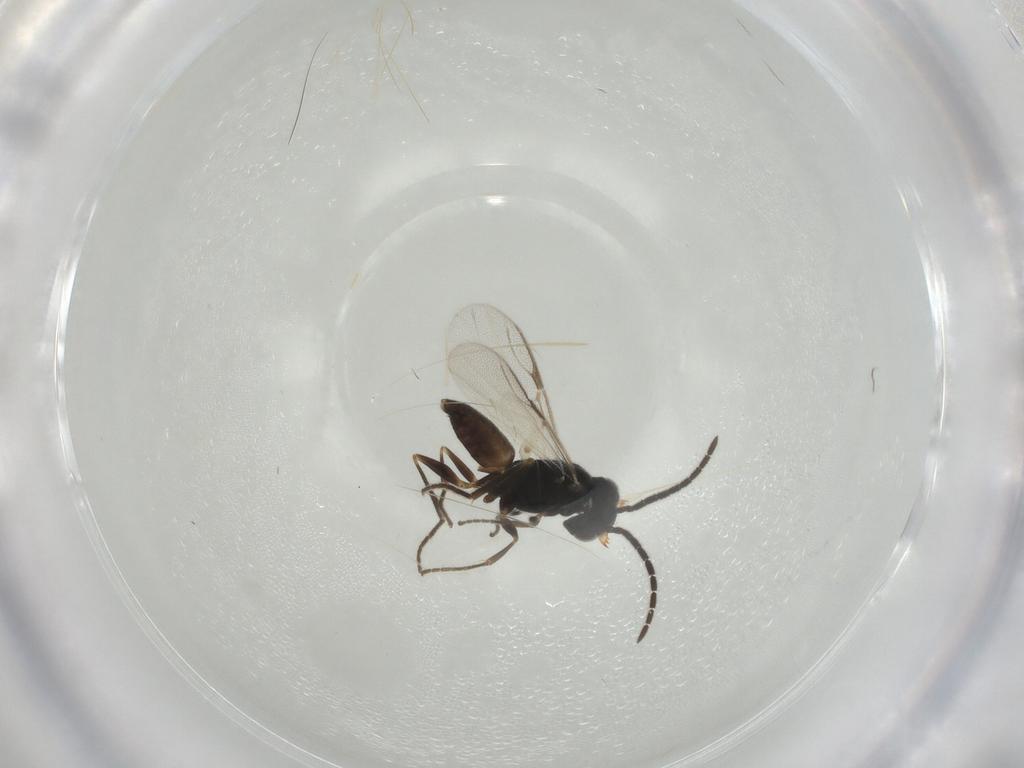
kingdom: Animalia
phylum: Arthropoda
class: Insecta
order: Hymenoptera
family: Dryinidae
